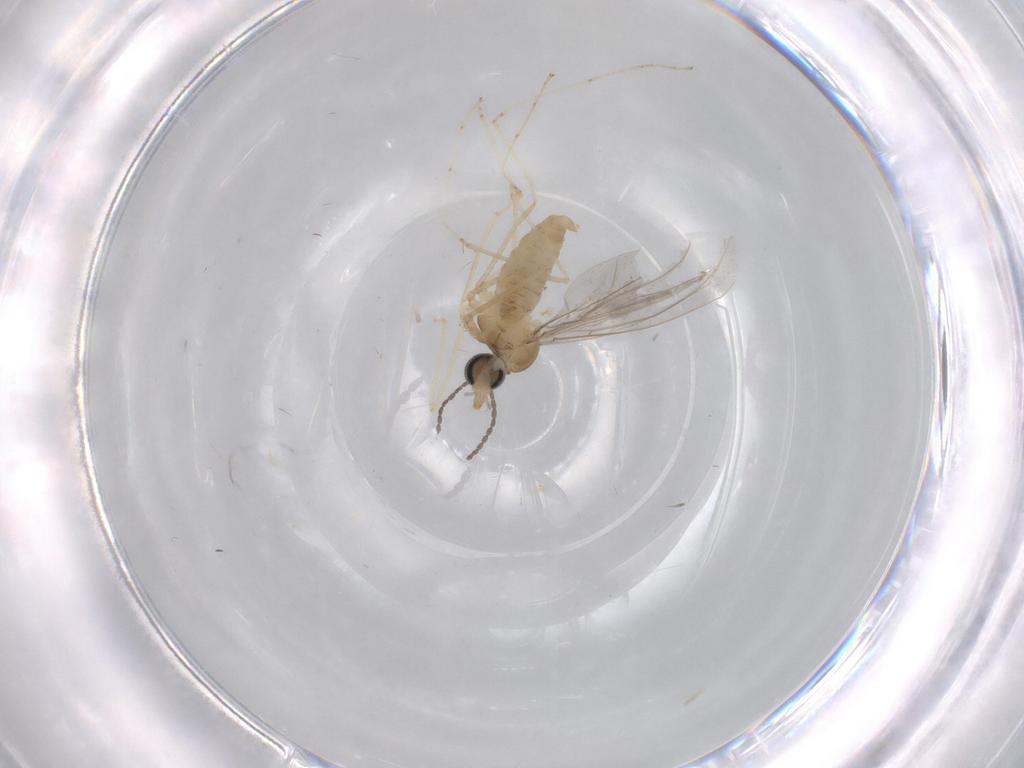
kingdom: Animalia
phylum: Arthropoda
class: Insecta
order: Diptera
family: Cecidomyiidae
